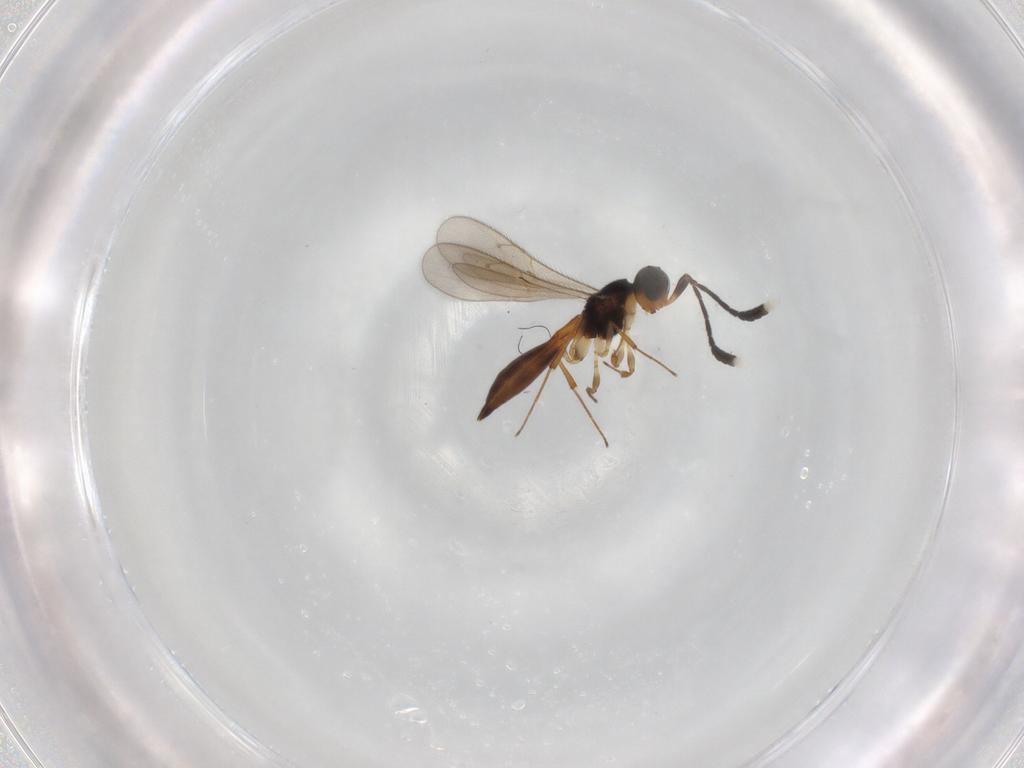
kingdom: Animalia
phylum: Arthropoda
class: Insecta
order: Hymenoptera
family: Scelionidae
